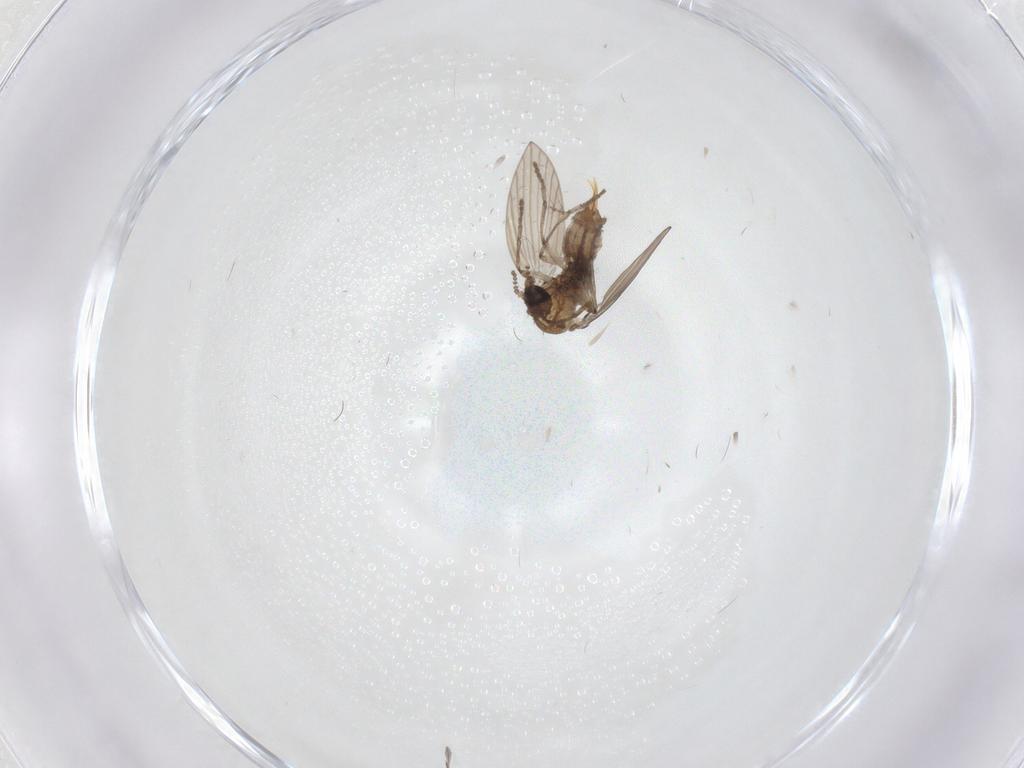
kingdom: Animalia
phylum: Arthropoda
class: Insecta
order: Diptera
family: Chironomidae
